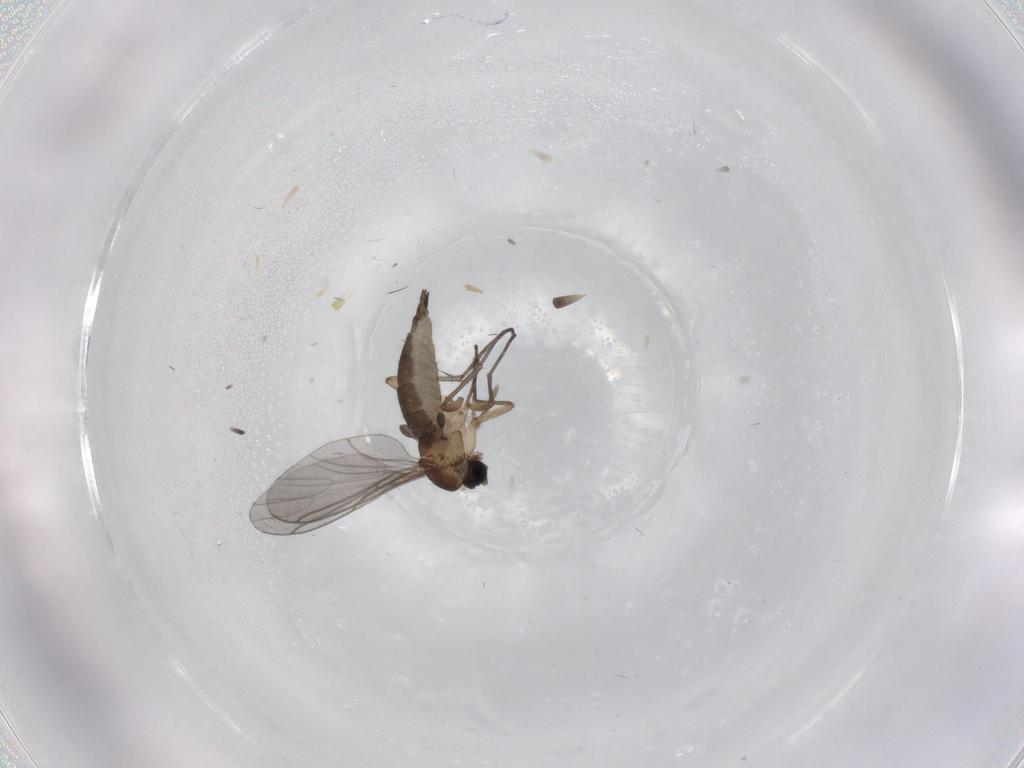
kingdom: Animalia
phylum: Arthropoda
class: Insecta
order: Diptera
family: Sciaridae
